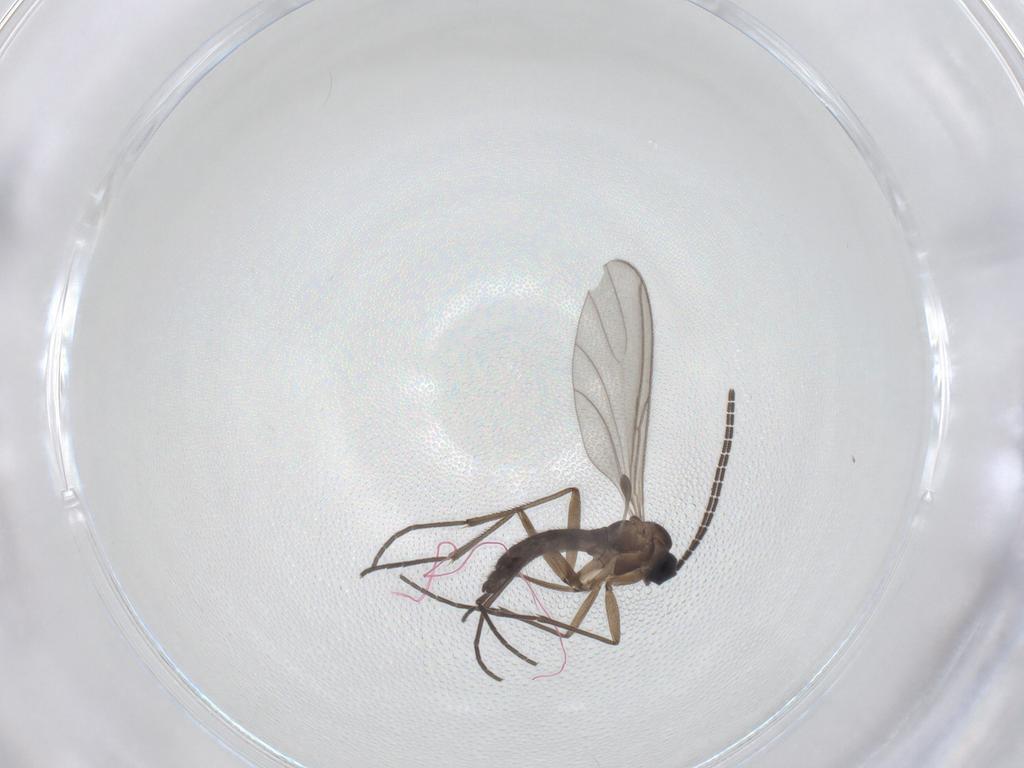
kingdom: Animalia
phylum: Arthropoda
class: Insecta
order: Diptera
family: Sciaridae
